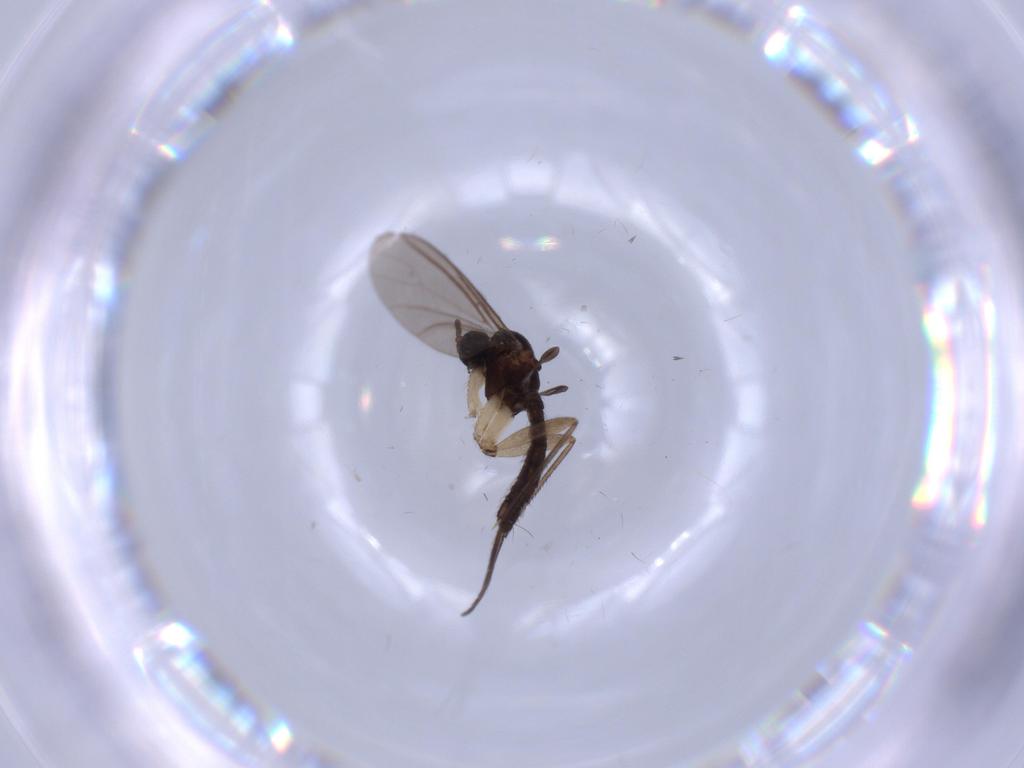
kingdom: Animalia
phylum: Arthropoda
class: Insecta
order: Diptera
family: Sciaridae
